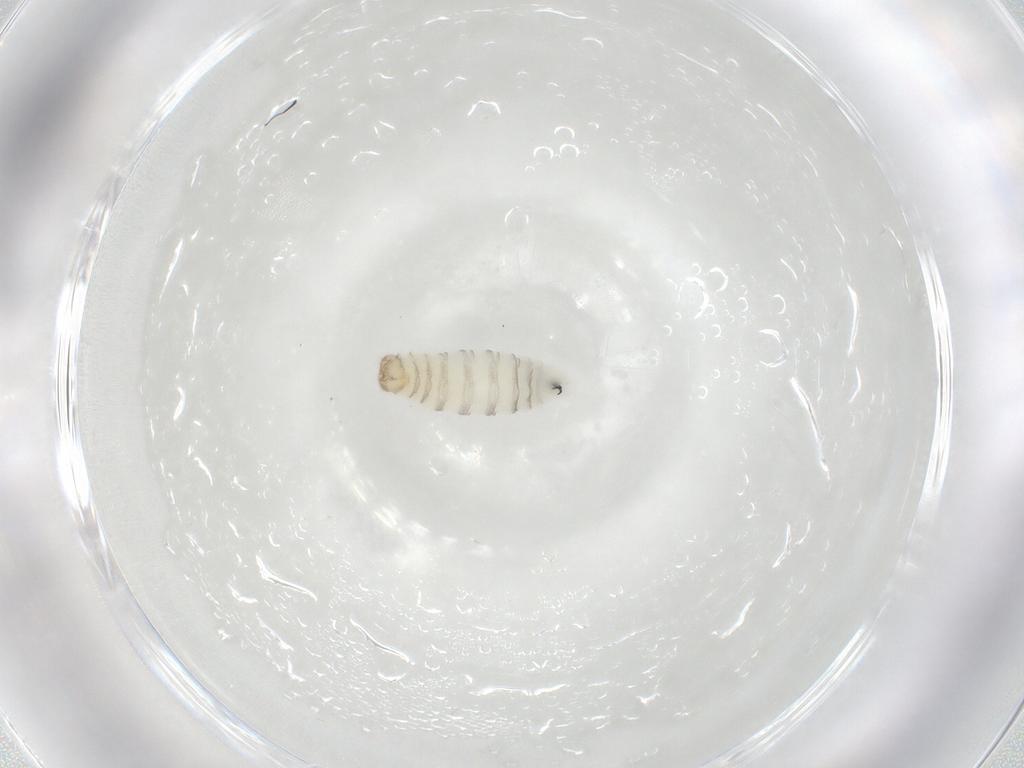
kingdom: Animalia
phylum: Arthropoda
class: Insecta
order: Diptera
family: Sarcophagidae
